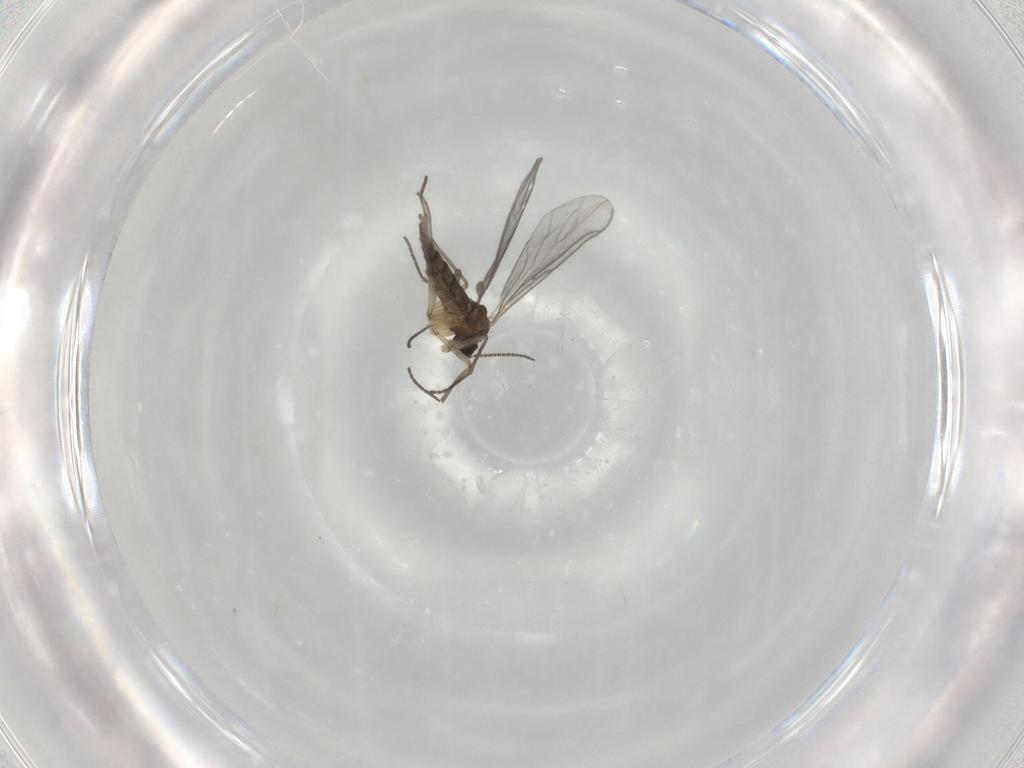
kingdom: Animalia
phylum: Arthropoda
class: Insecta
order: Diptera
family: Sciaridae
